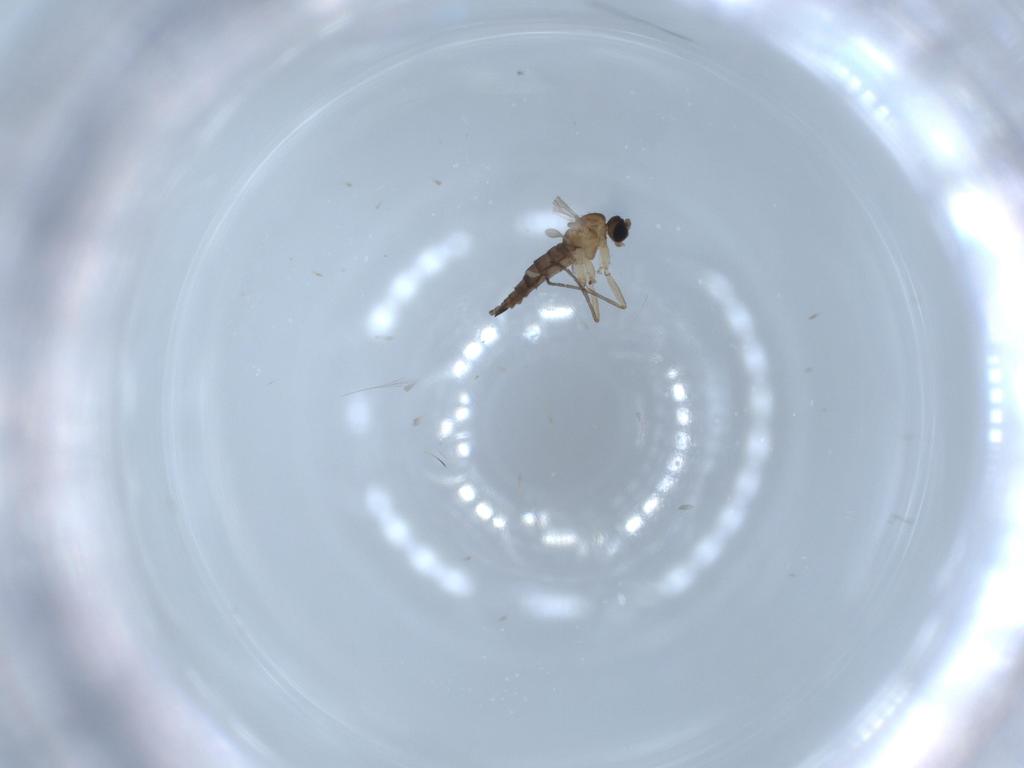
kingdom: Animalia
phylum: Arthropoda
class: Insecta
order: Diptera
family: Sciaridae
